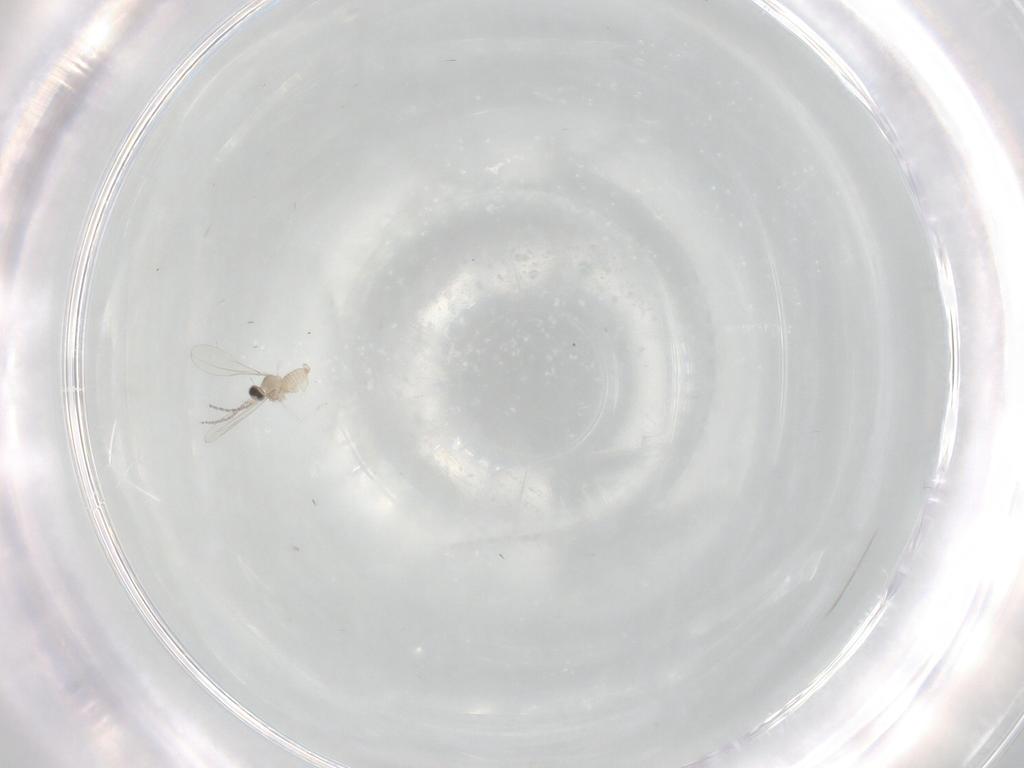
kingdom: Animalia
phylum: Arthropoda
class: Insecta
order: Diptera
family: Cecidomyiidae
